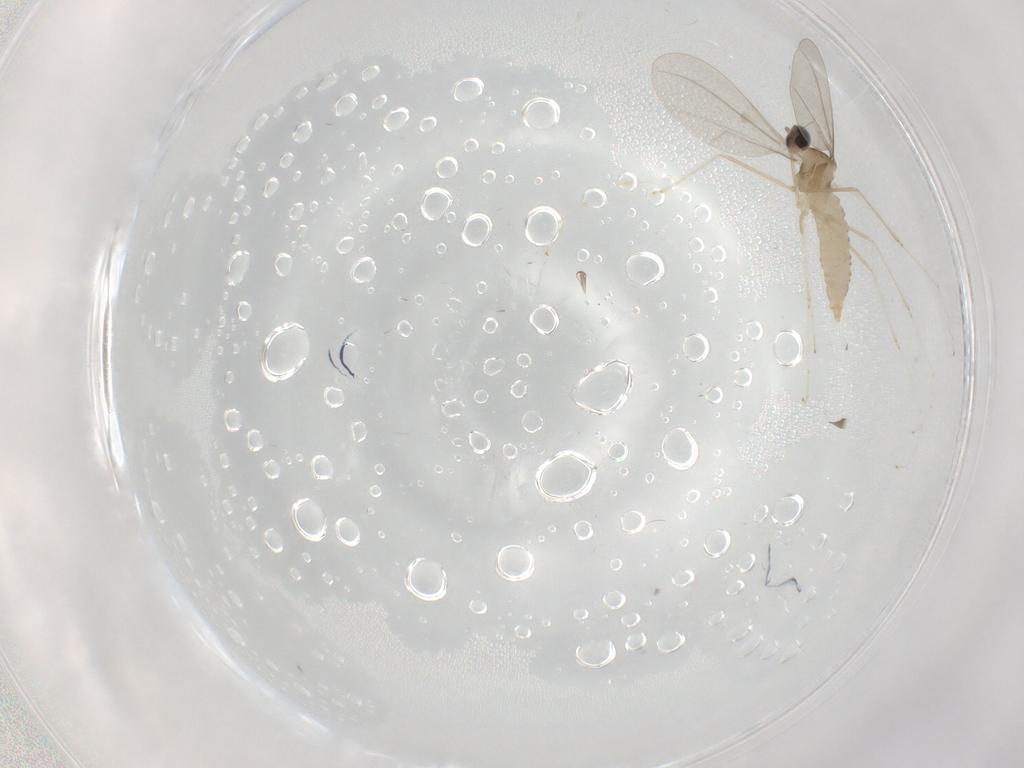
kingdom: Animalia
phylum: Arthropoda
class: Insecta
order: Diptera
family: Cecidomyiidae
